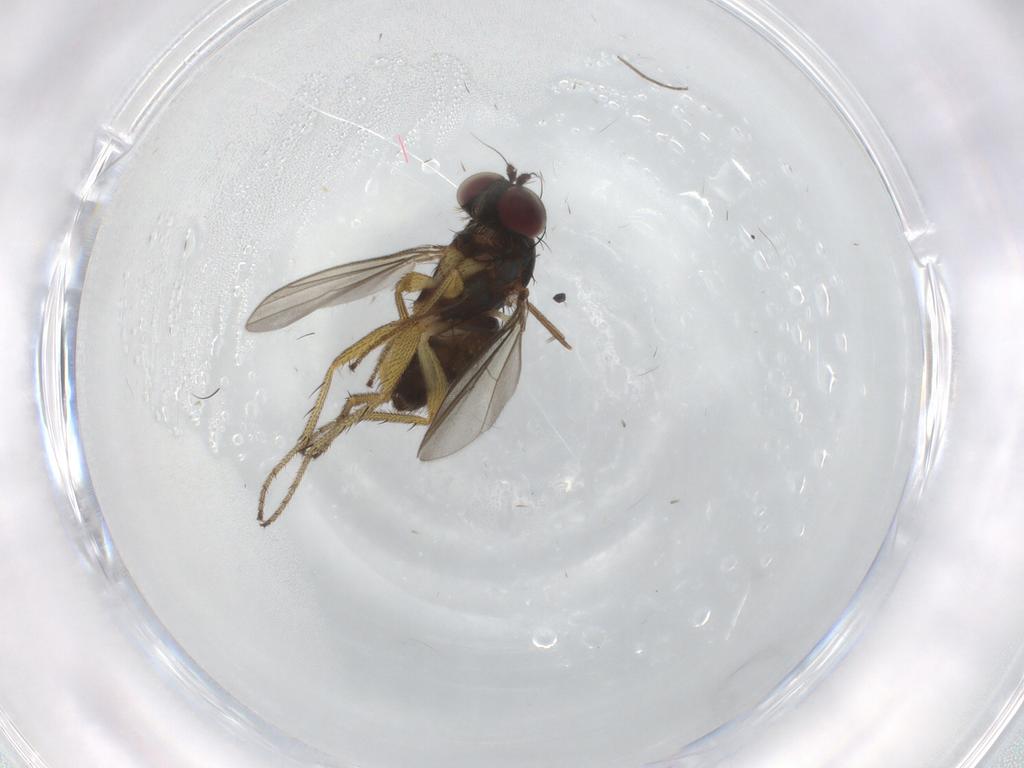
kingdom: Animalia
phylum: Arthropoda
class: Insecta
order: Diptera
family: Chironomidae
